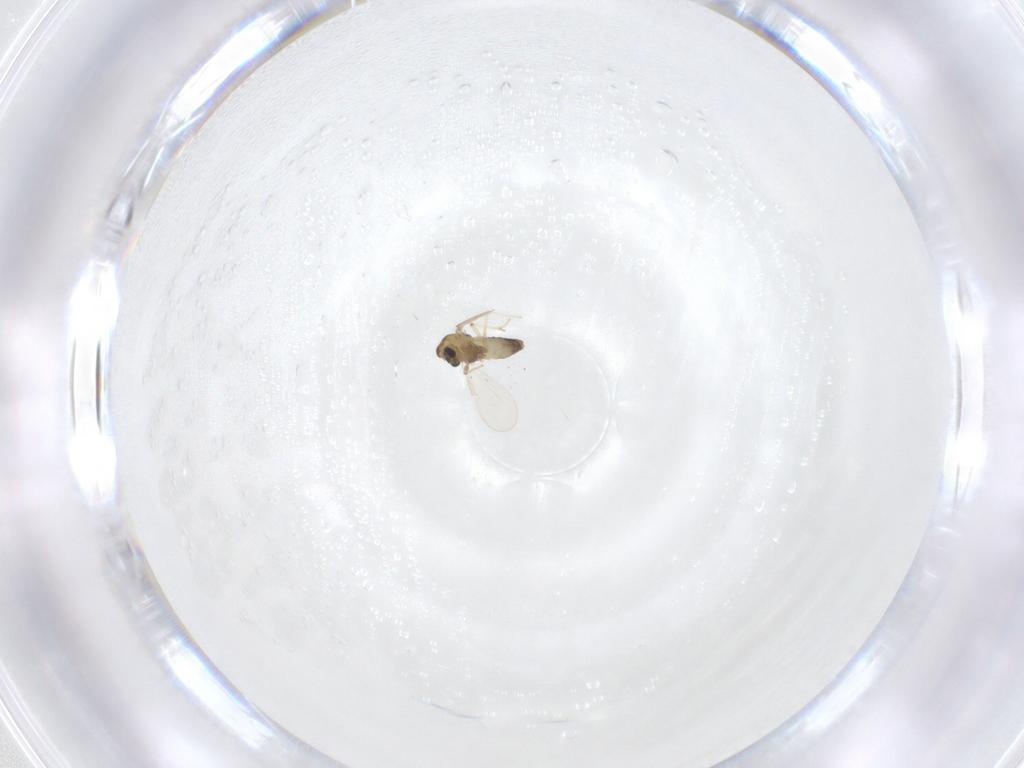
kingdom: Animalia
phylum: Arthropoda
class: Insecta
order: Diptera
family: Chironomidae
